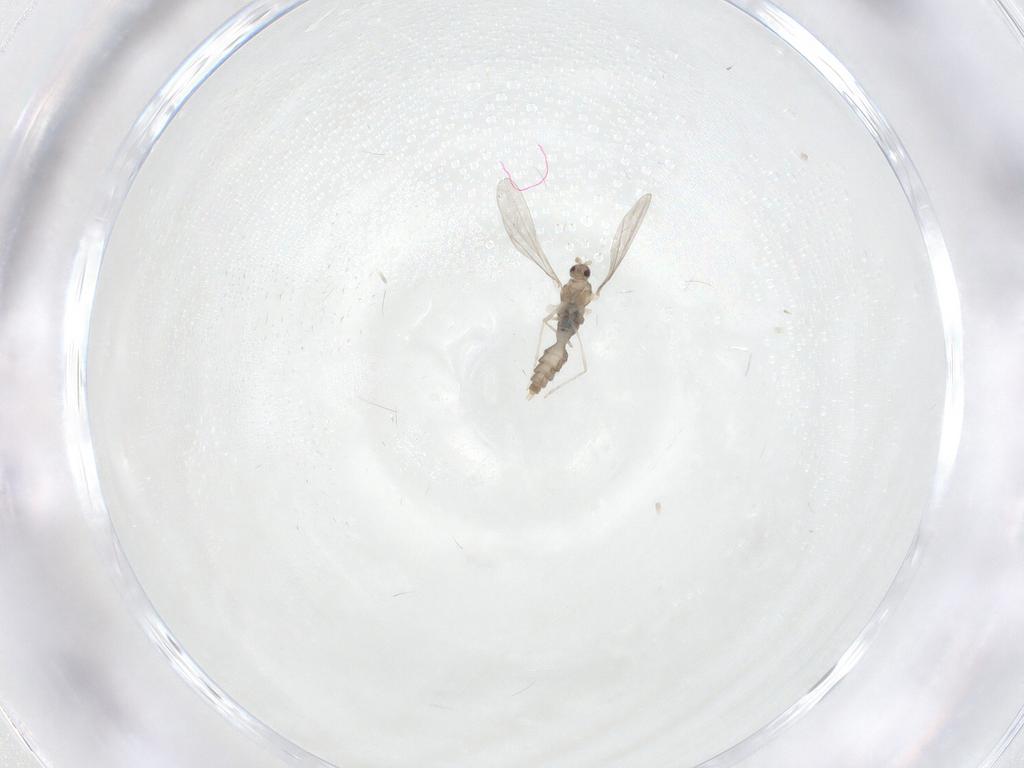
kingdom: Animalia
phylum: Arthropoda
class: Insecta
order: Diptera
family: Cecidomyiidae
